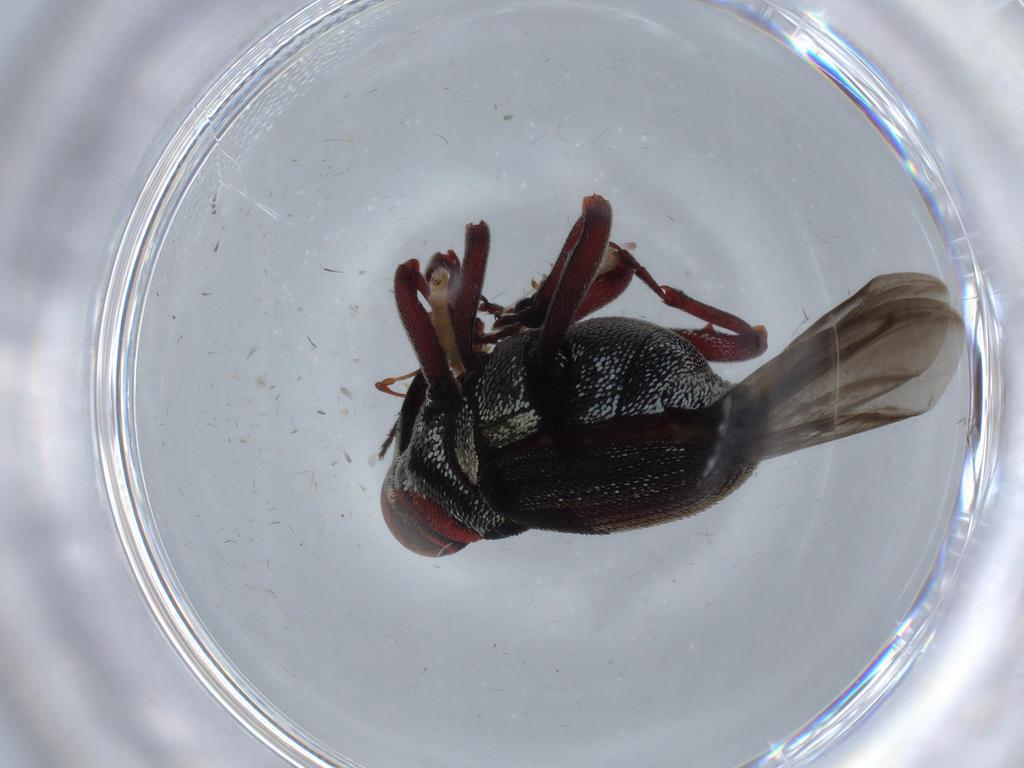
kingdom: Animalia
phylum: Arthropoda
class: Insecta
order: Coleoptera
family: Curculionidae
